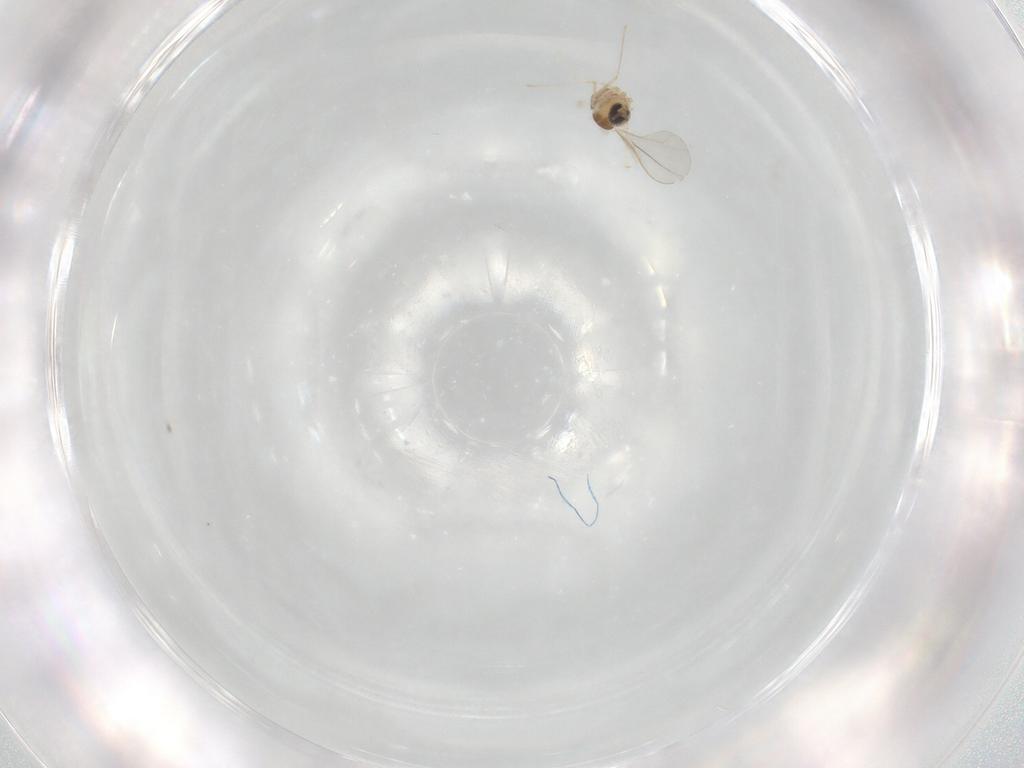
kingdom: Animalia
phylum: Arthropoda
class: Insecta
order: Diptera
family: Cecidomyiidae
